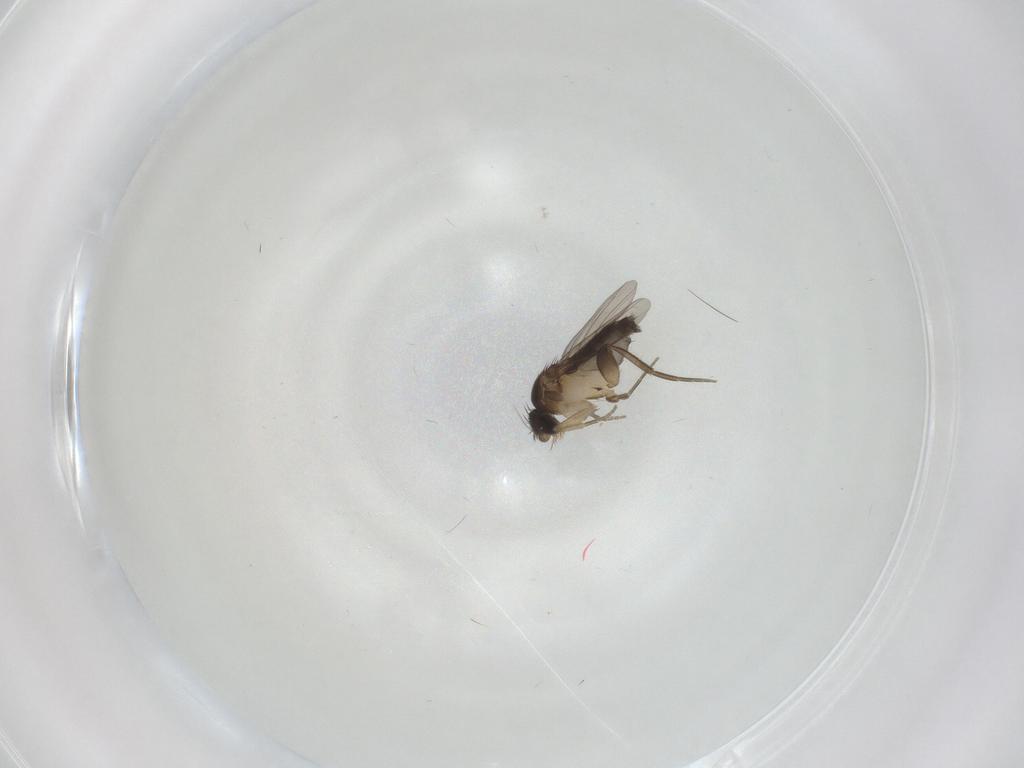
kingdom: Animalia
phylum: Arthropoda
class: Insecta
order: Diptera
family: Phoridae
